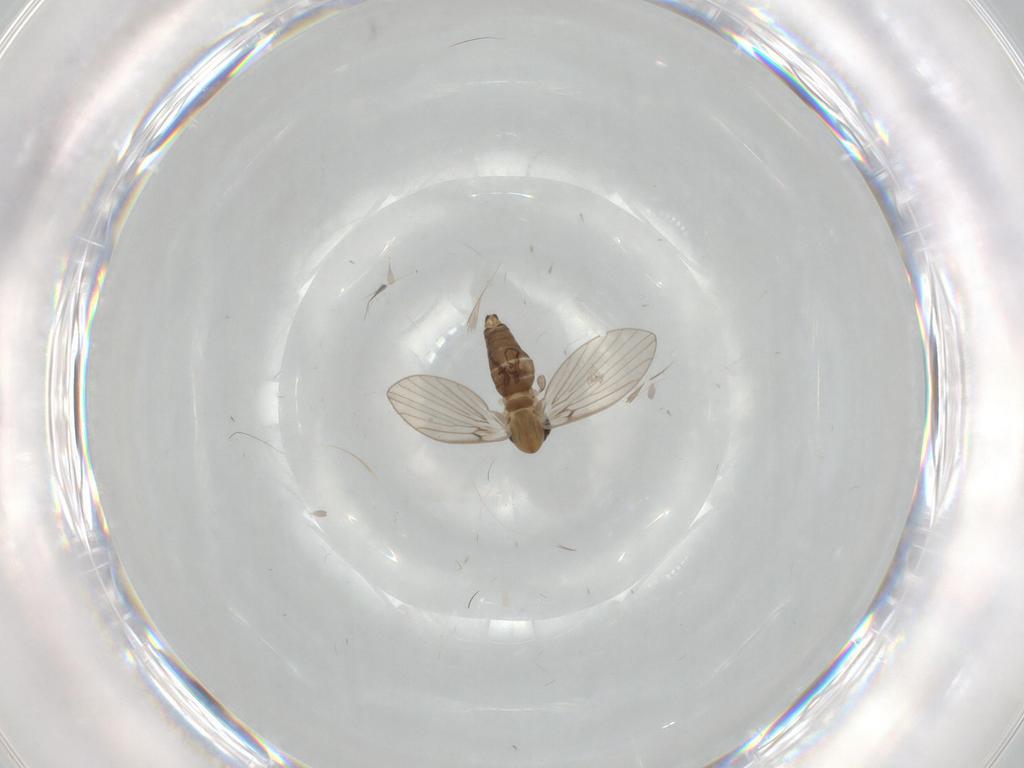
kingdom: Animalia
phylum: Arthropoda
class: Insecta
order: Diptera
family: Tabanidae
